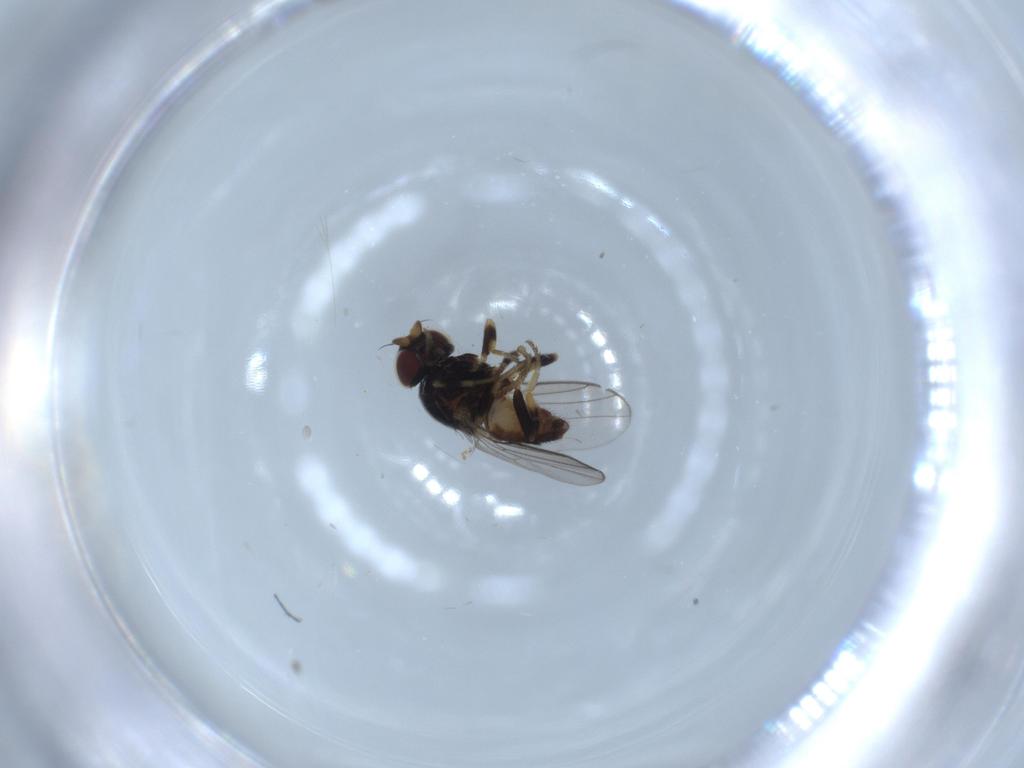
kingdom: Animalia
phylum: Arthropoda
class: Insecta
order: Diptera
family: Chloropidae
